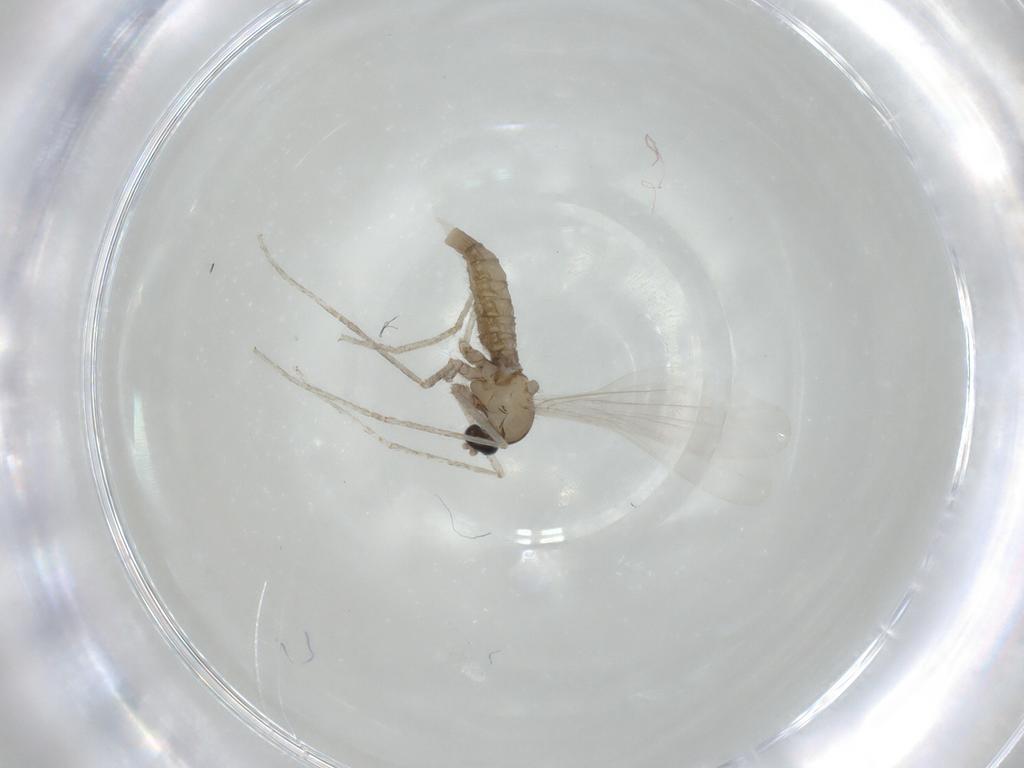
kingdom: Animalia
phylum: Arthropoda
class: Insecta
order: Diptera
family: Cecidomyiidae
